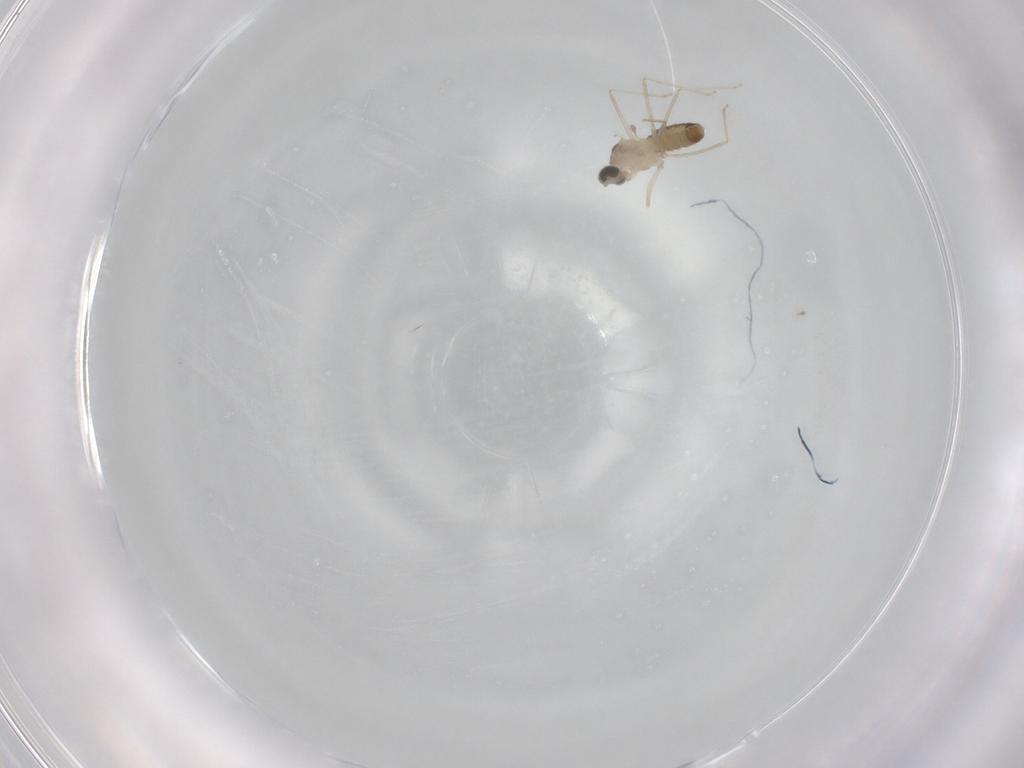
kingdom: Animalia
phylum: Arthropoda
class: Insecta
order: Diptera
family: Cecidomyiidae
